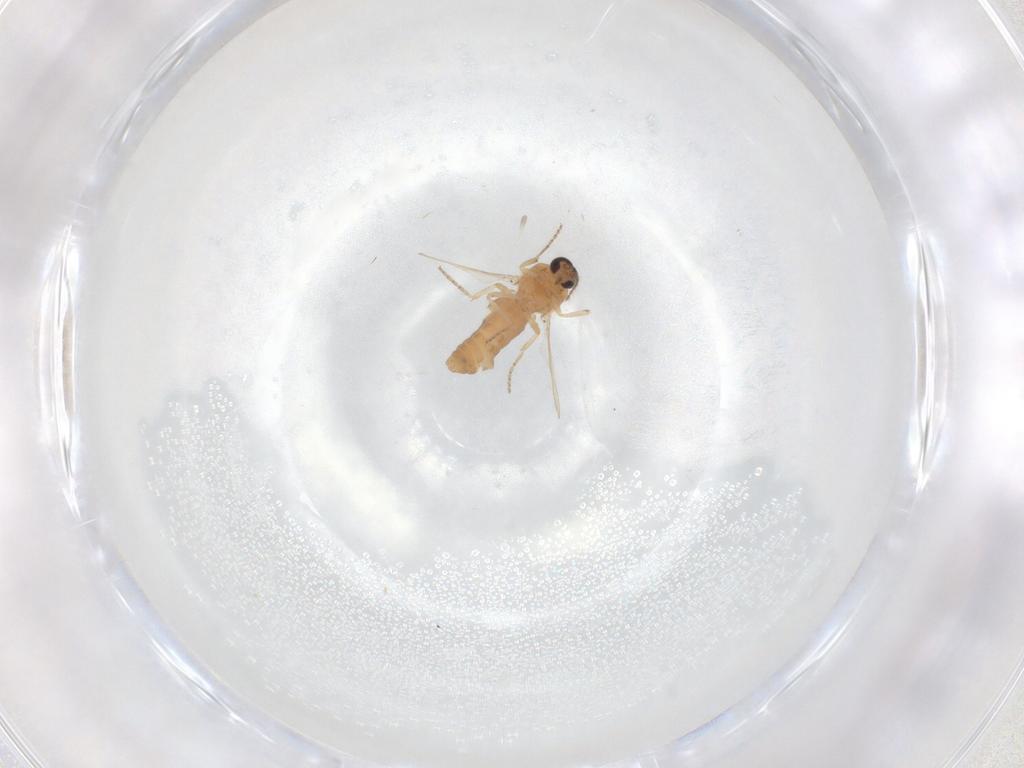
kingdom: Animalia
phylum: Arthropoda
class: Insecta
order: Diptera
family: Ceratopogonidae
